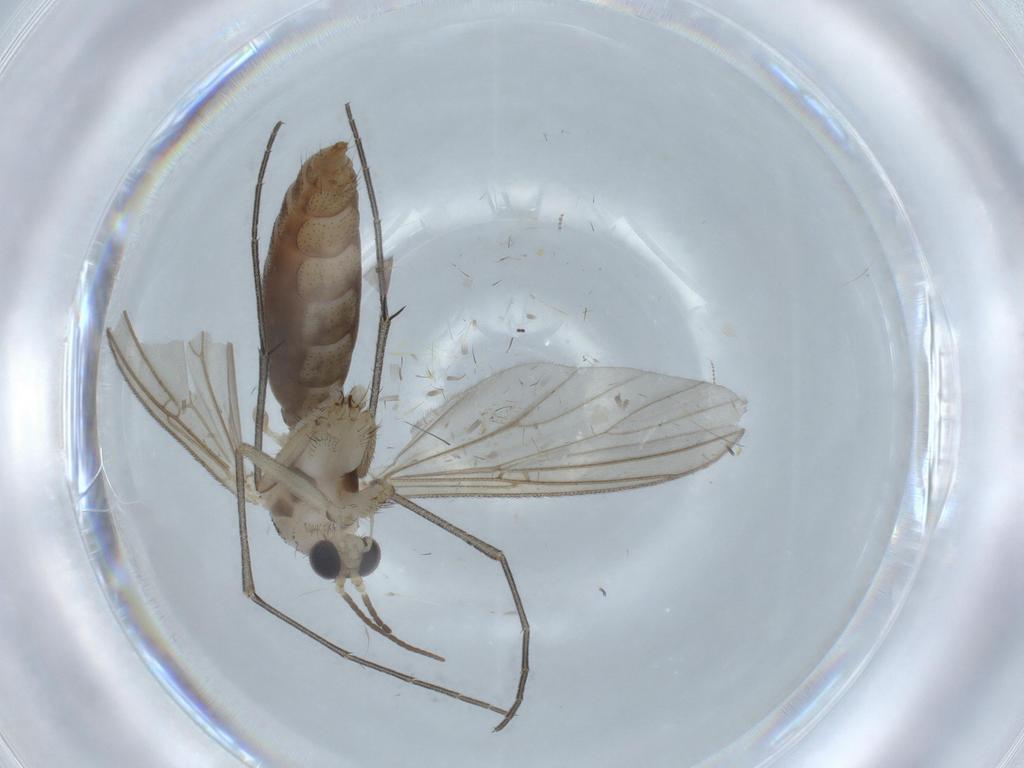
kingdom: Animalia
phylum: Arthropoda
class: Insecta
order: Diptera
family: Mycetophilidae
